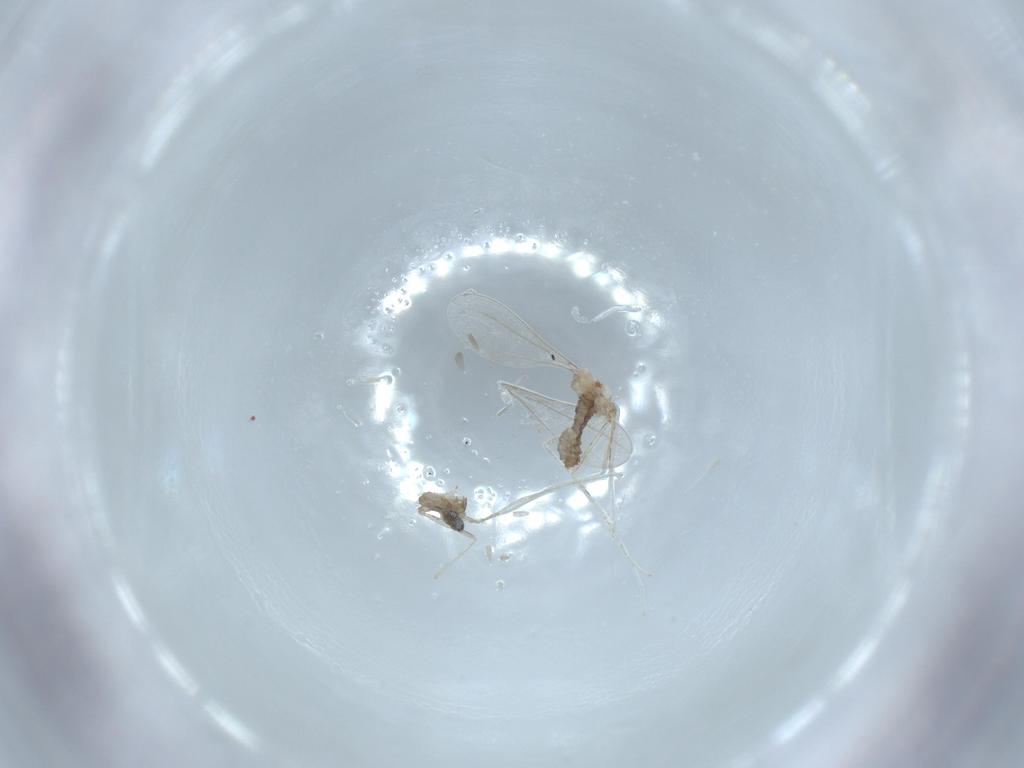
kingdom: Animalia
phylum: Arthropoda
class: Insecta
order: Diptera
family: Cecidomyiidae
